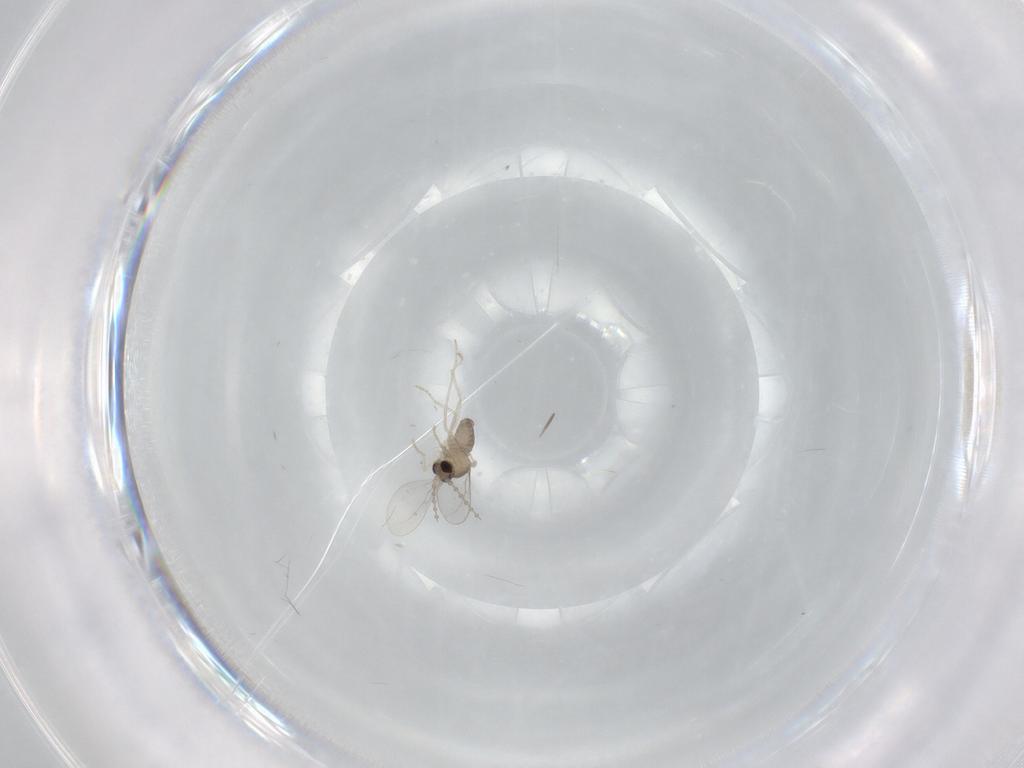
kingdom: Animalia
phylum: Arthropoda
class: Insecta
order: Diptera
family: Cecidomyiidae
